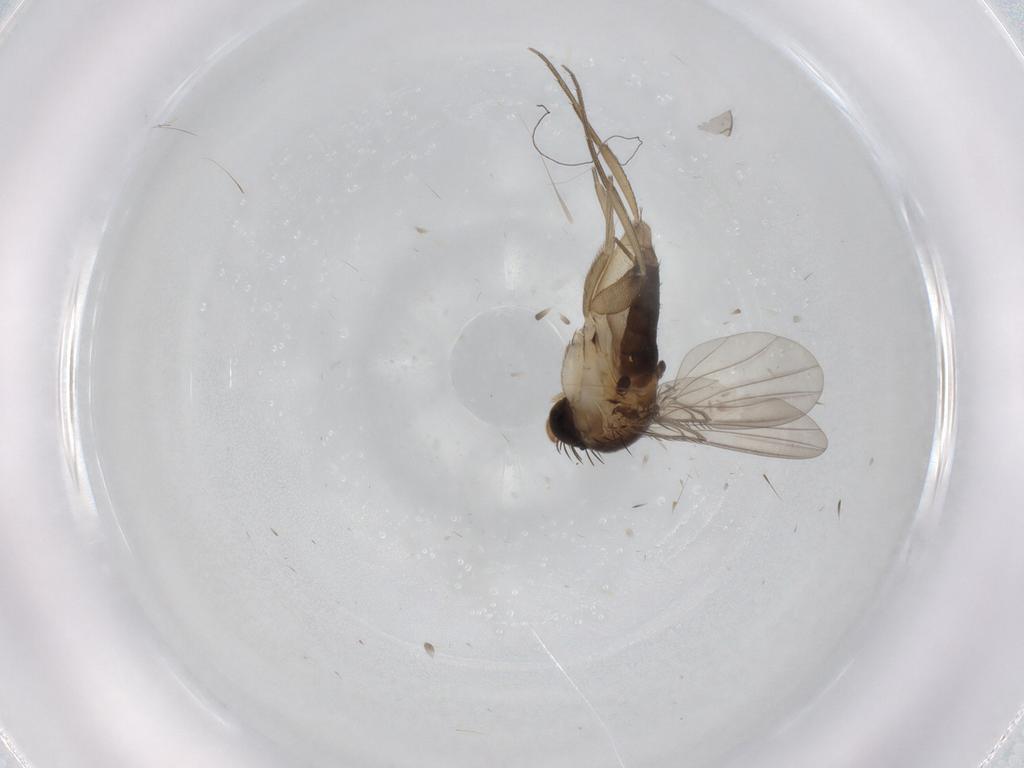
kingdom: Animalia
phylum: Arthropoda
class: Insecta
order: Diptera
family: Phoridae
